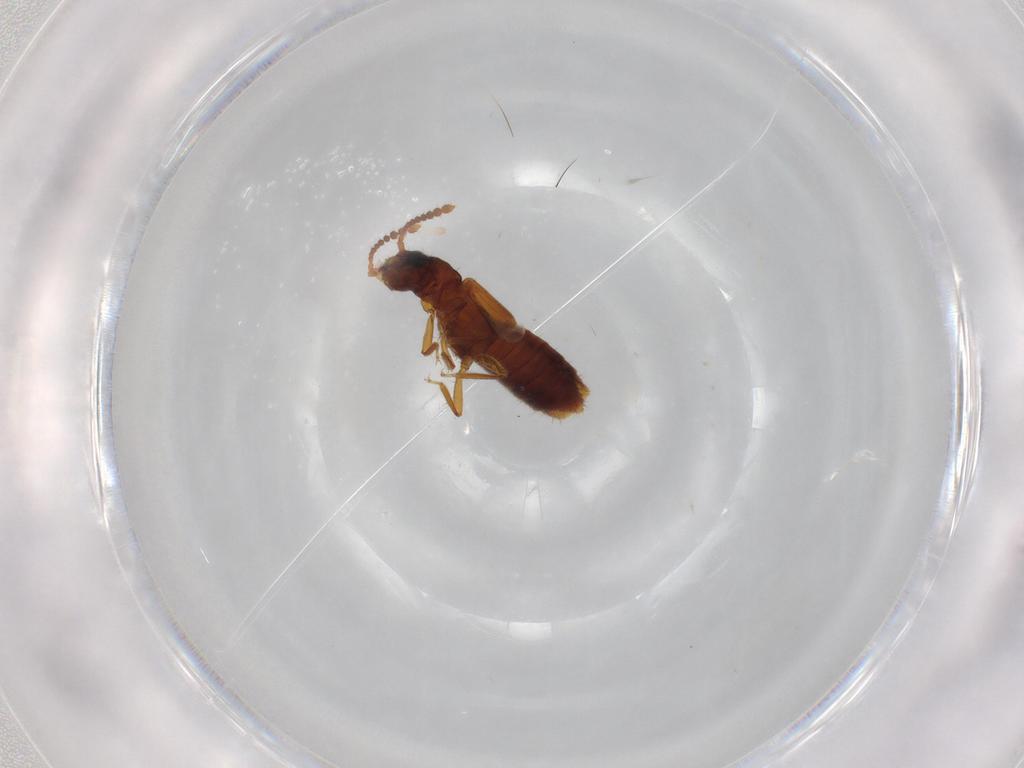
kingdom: Animalia
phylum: Arthropoda
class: Insecta
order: Coleoptera
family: Staphylinidae
